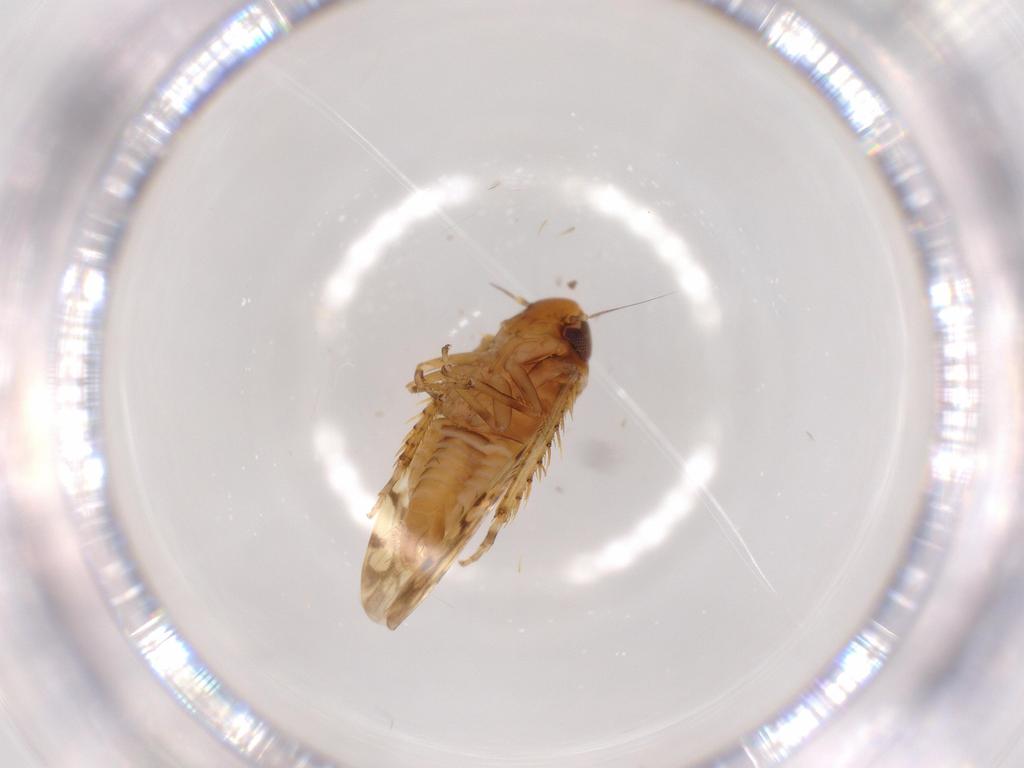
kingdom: Animalia
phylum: Arthropoda
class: Insecta
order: Hemiptera
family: Cicadellidae
